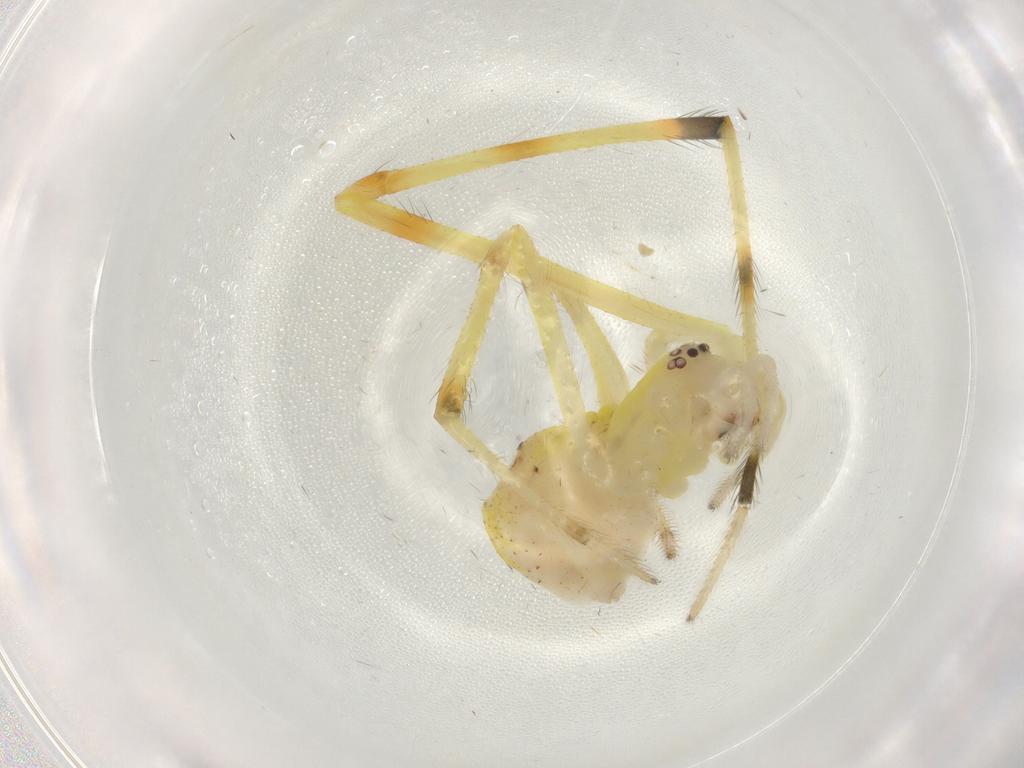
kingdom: Animalia
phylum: Arthropoda
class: Arachnida
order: Araneae
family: Theridiidae
